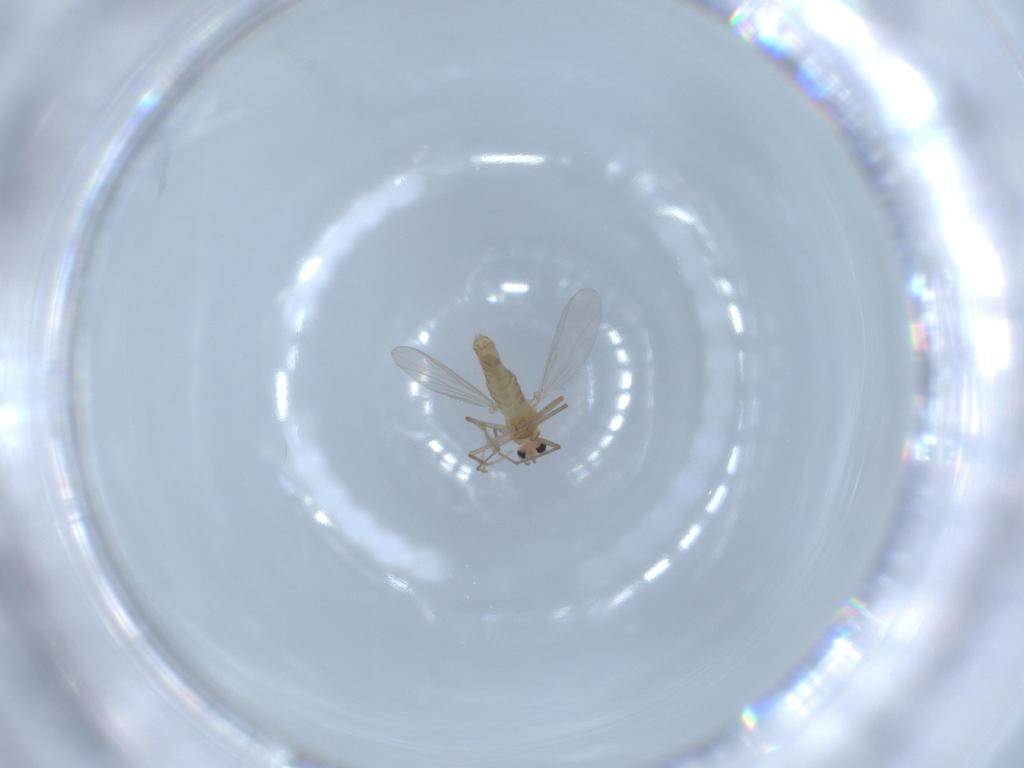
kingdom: Animalia
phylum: Arthropoda
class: Insecta
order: Diptera
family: Chironomidae
